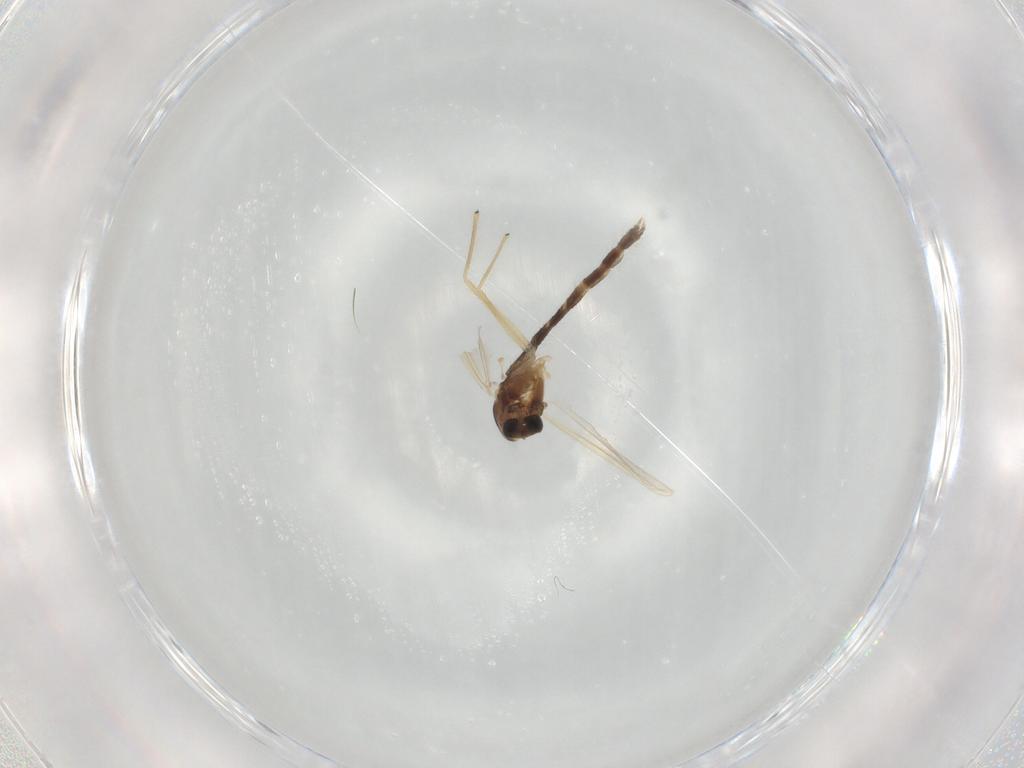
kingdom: Animalia
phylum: Arthropoda
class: Insecta
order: Diptera
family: Chironomidae
